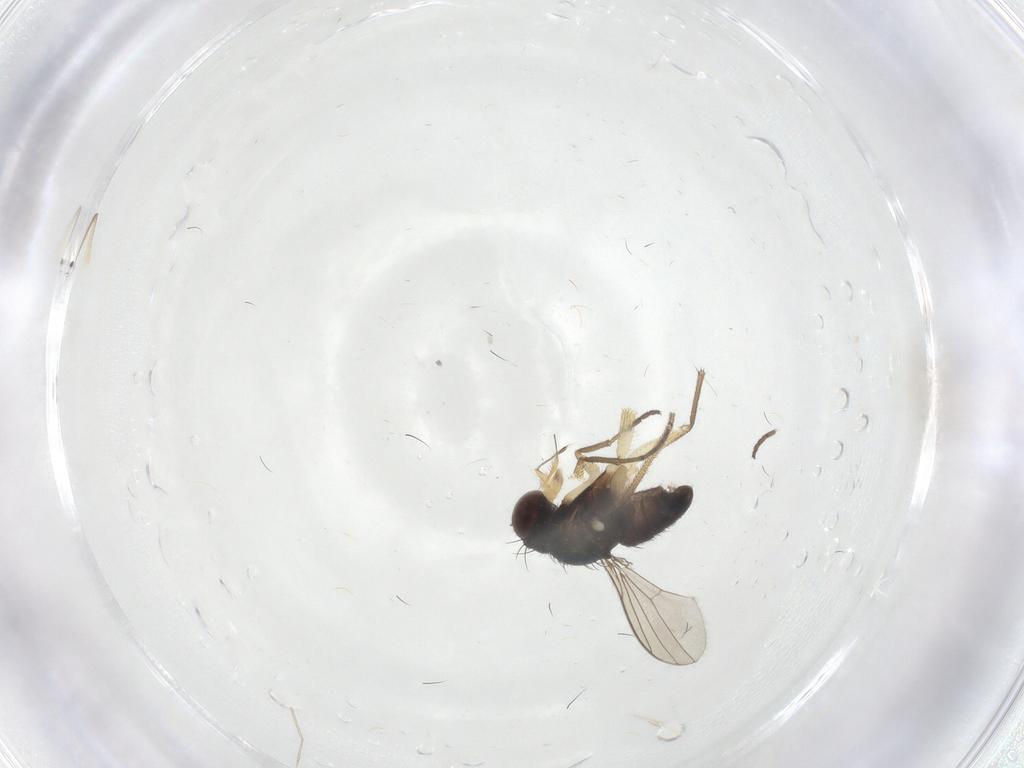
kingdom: Animalia
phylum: Arthropoda
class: Insecta
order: Diptera
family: Dolichopodidae
